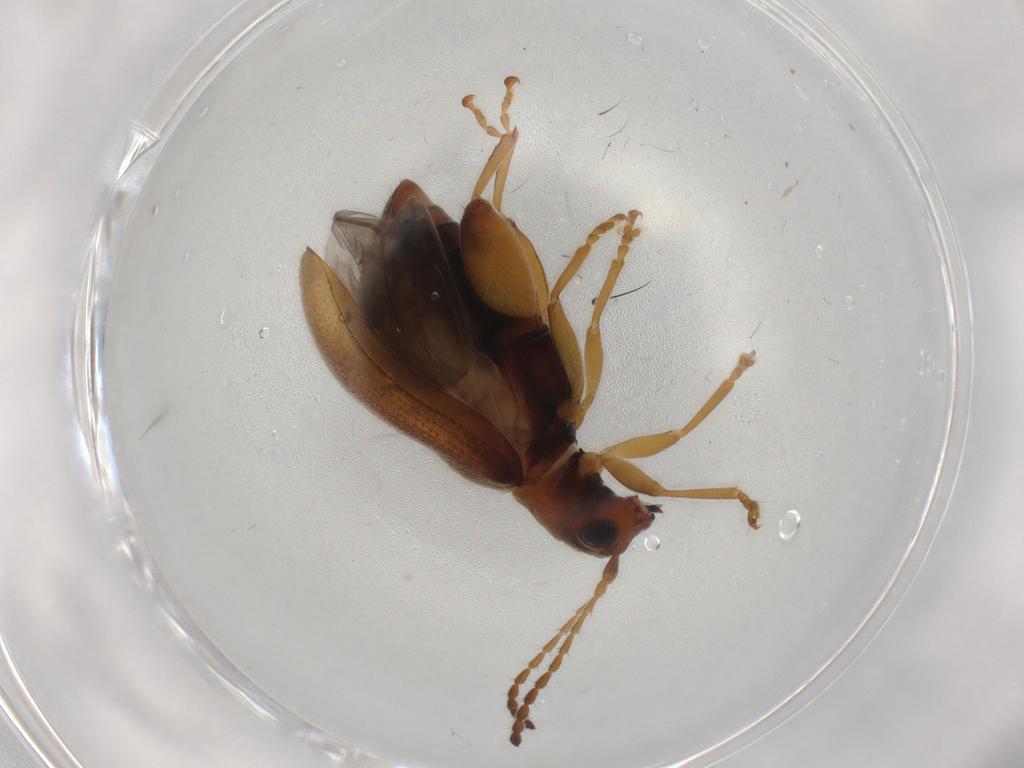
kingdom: Animalia
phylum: Arthropoda
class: Insecta
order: Coleoptera
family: Chrysomelidae
